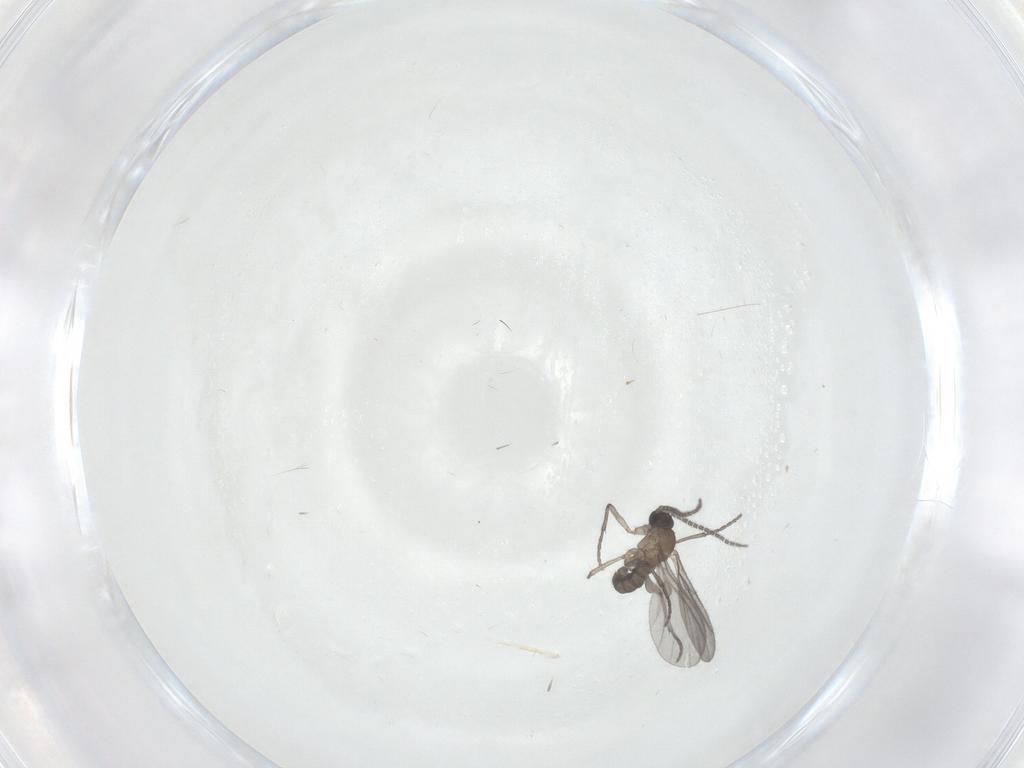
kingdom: Animalia
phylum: Arthropoda
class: Insecta
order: Diptera
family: Sciaridae
